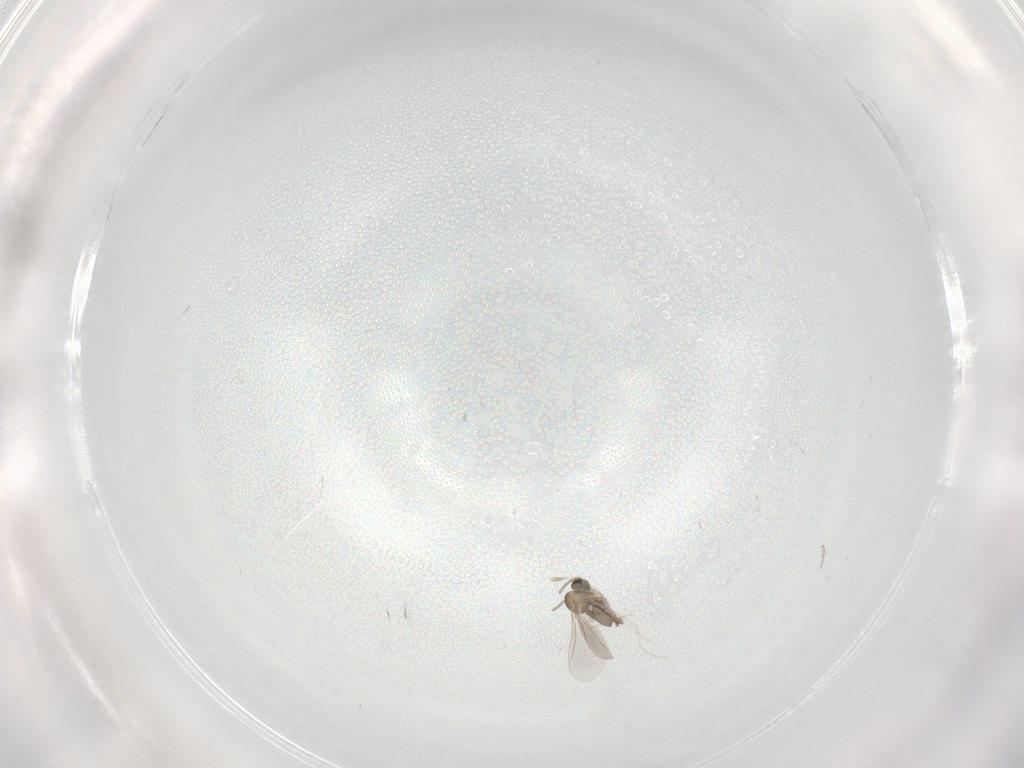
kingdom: Animalia
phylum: Arthropoda
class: Insecta
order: Diptera
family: Cecidomyiidae
